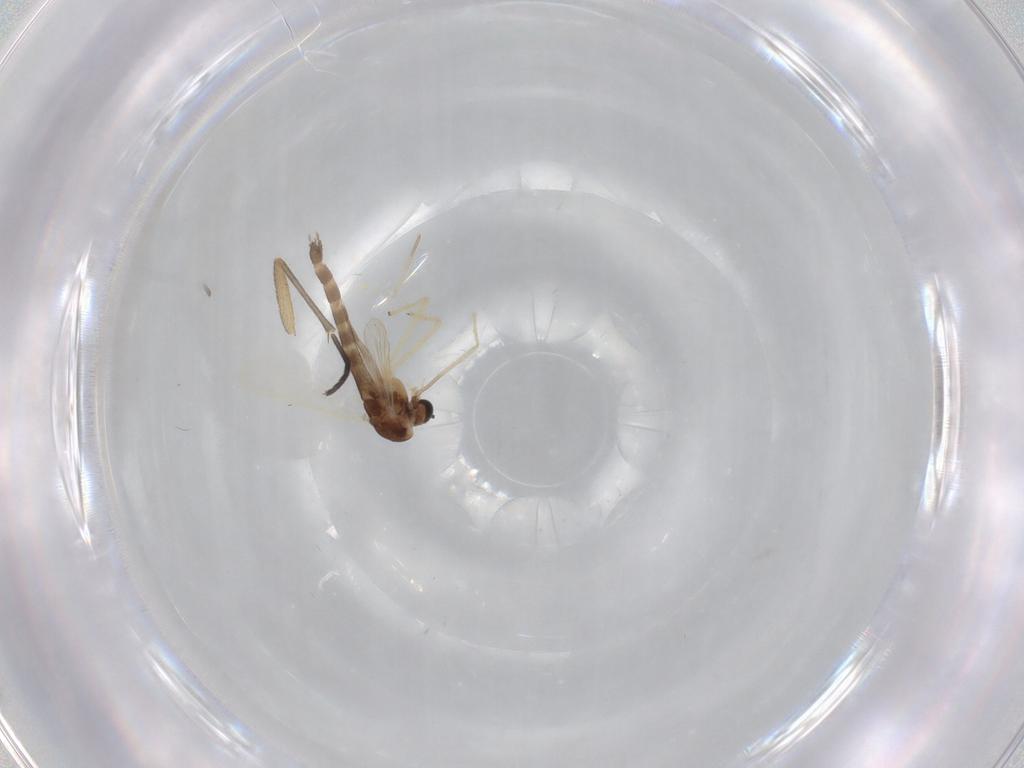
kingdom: Animalia
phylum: Arthropoda
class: Insecta
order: Diptera
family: Chironomidae
